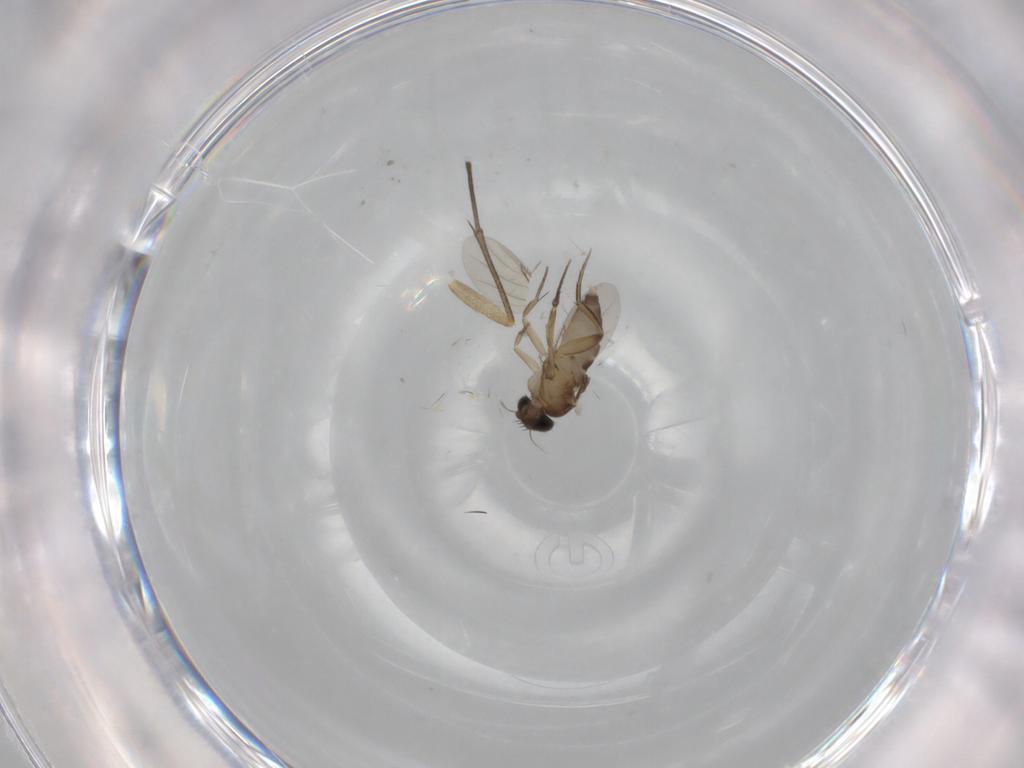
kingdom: Animalia
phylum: Arthropoda
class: Insecta
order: Diptera
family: Phoridae
